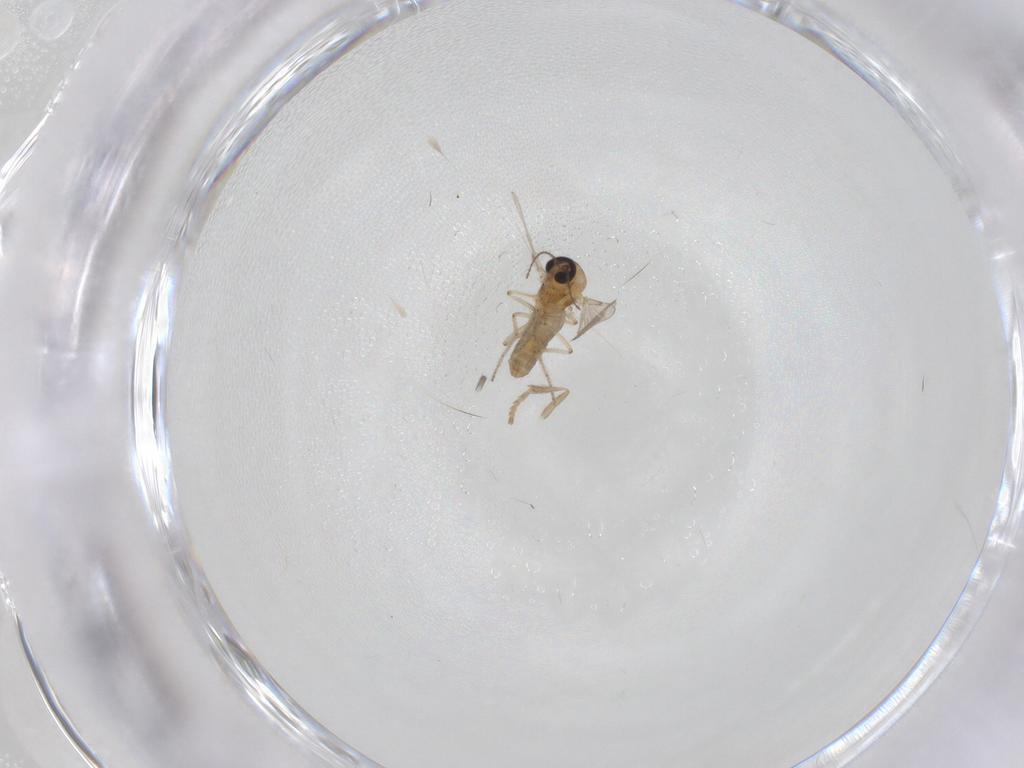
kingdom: Animalia
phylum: Arthropoda
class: Insecta
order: Diptera
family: Ceratopogonidae
